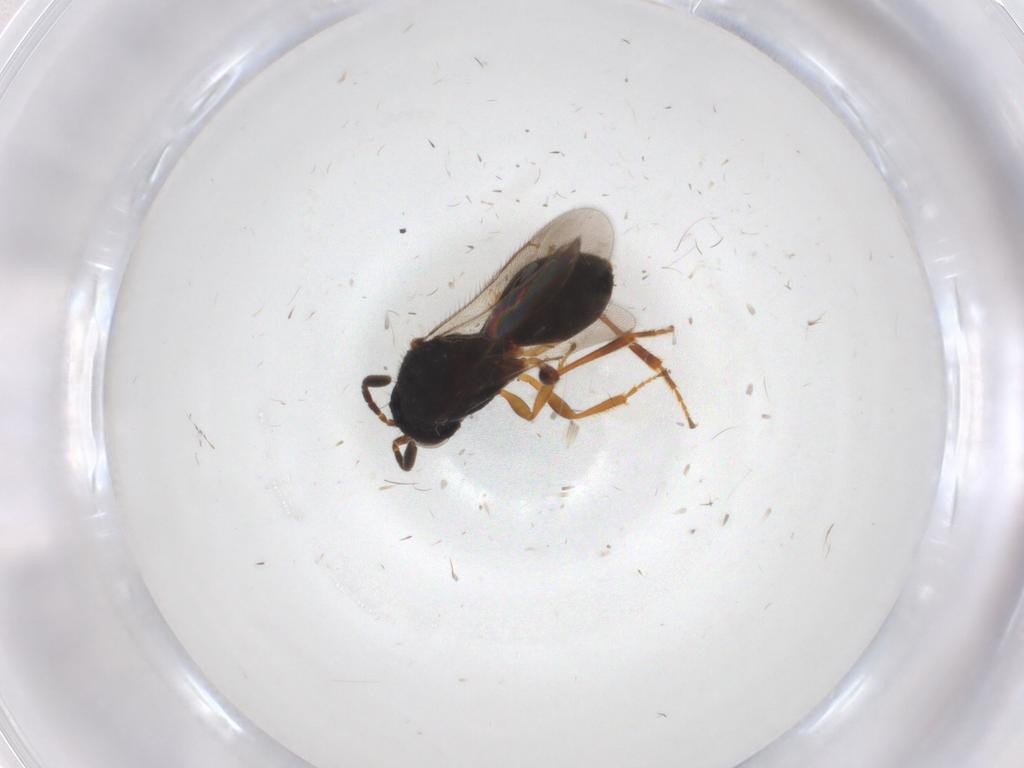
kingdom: Animalia
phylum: Arthropoda
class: Insecta
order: Hymenoptera
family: Scelionidae
